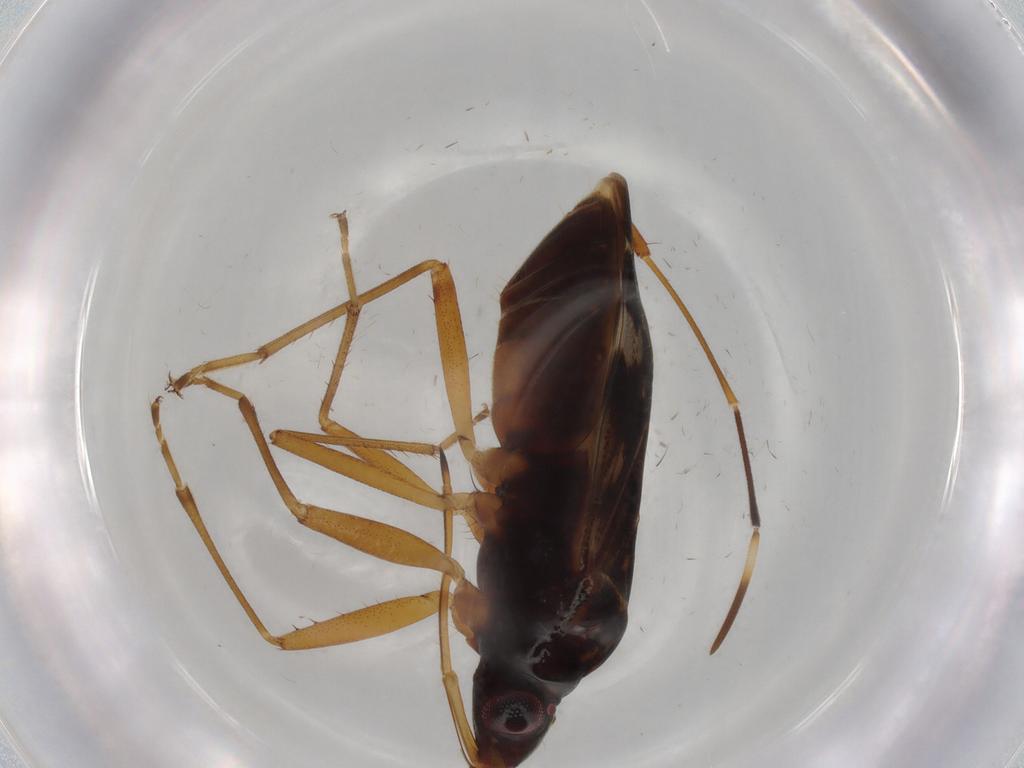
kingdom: Animalia
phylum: Arthropoda
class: Insecta
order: Hemiptera
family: Rhyparochromidae
